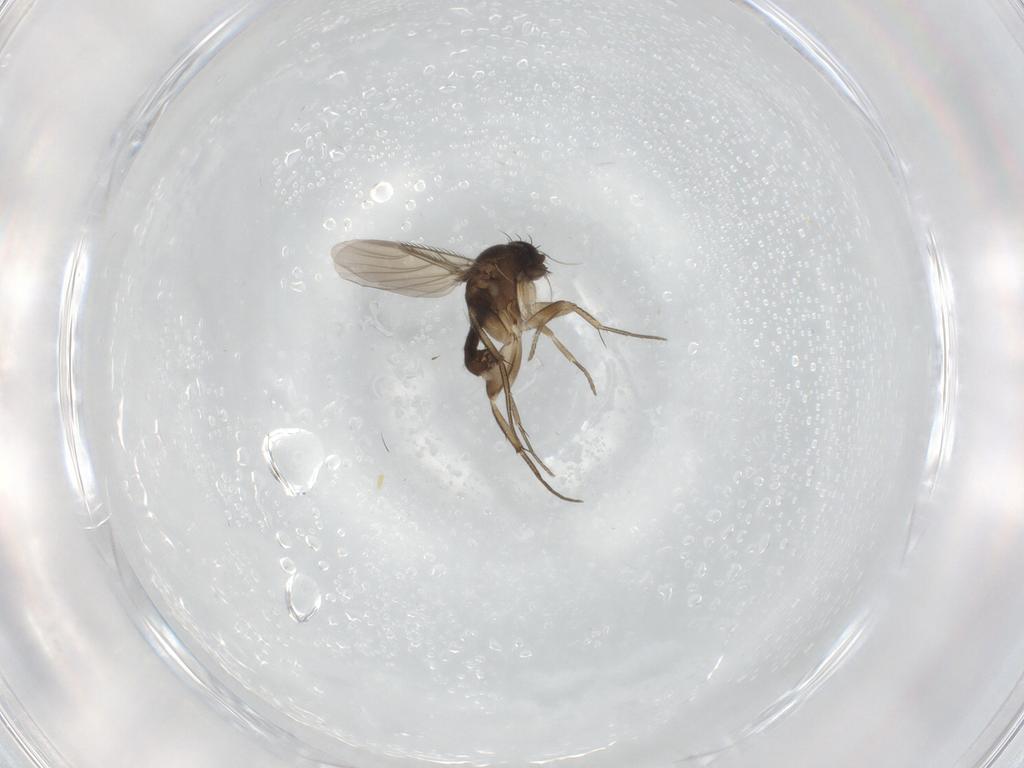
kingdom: Animalia
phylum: Arthropoda
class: Insecta
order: Diptera
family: Phoridae
